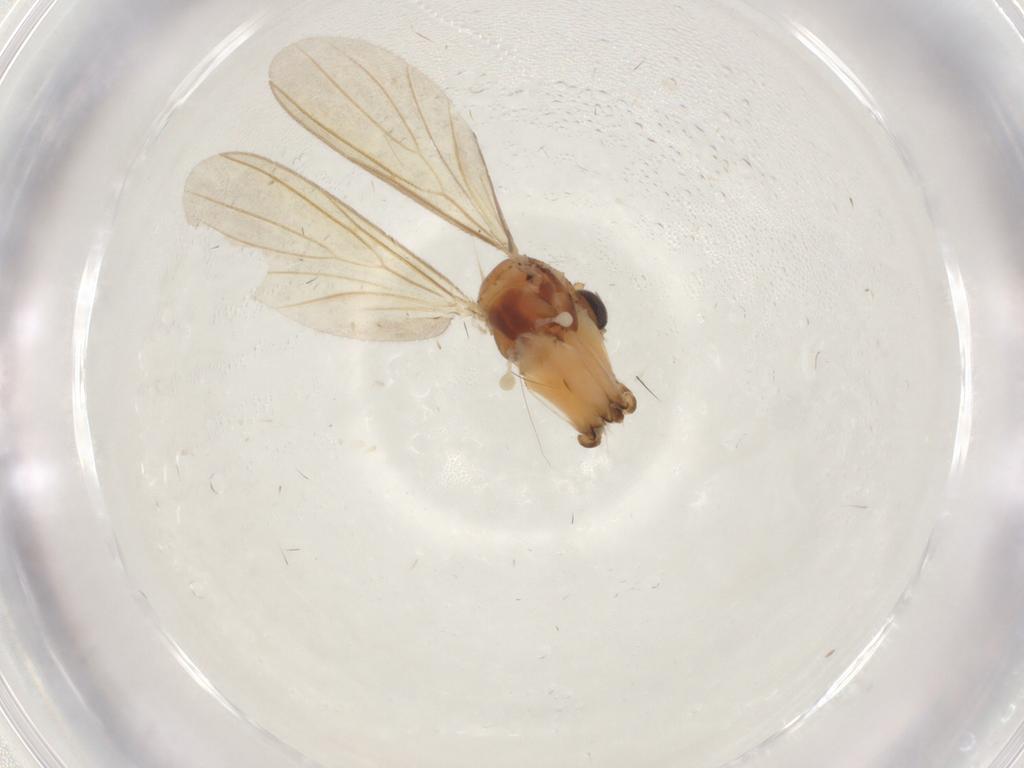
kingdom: Animalia
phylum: Arthropoda
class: Insecta
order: Diptera
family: Mycetophilidae
